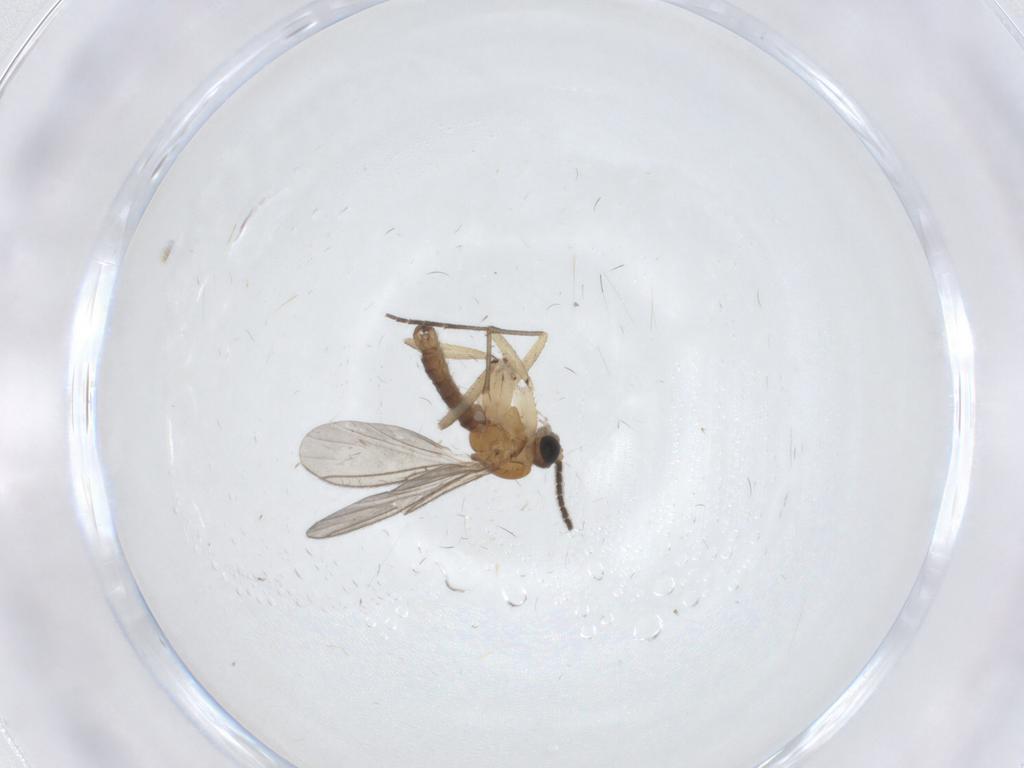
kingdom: Animalia
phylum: Arthropoda
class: Insecta
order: Diptera
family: Sciaridae
